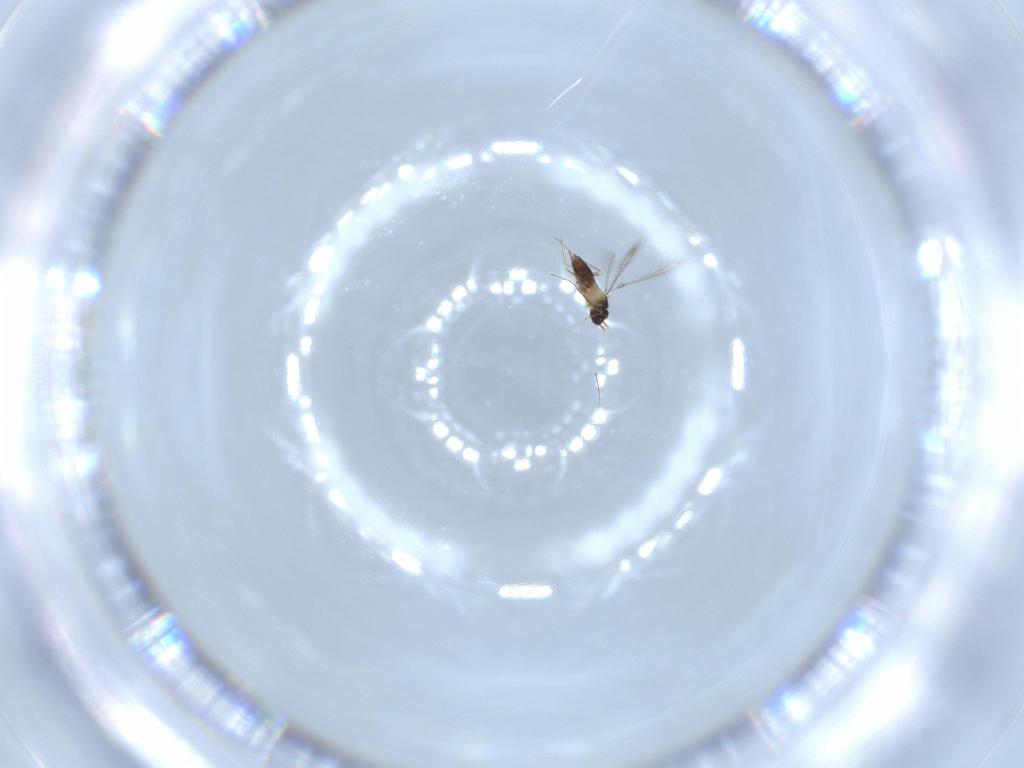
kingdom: Animalia
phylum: Arthropoda
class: Insecta
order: Hymenoptera
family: Mymaridae
